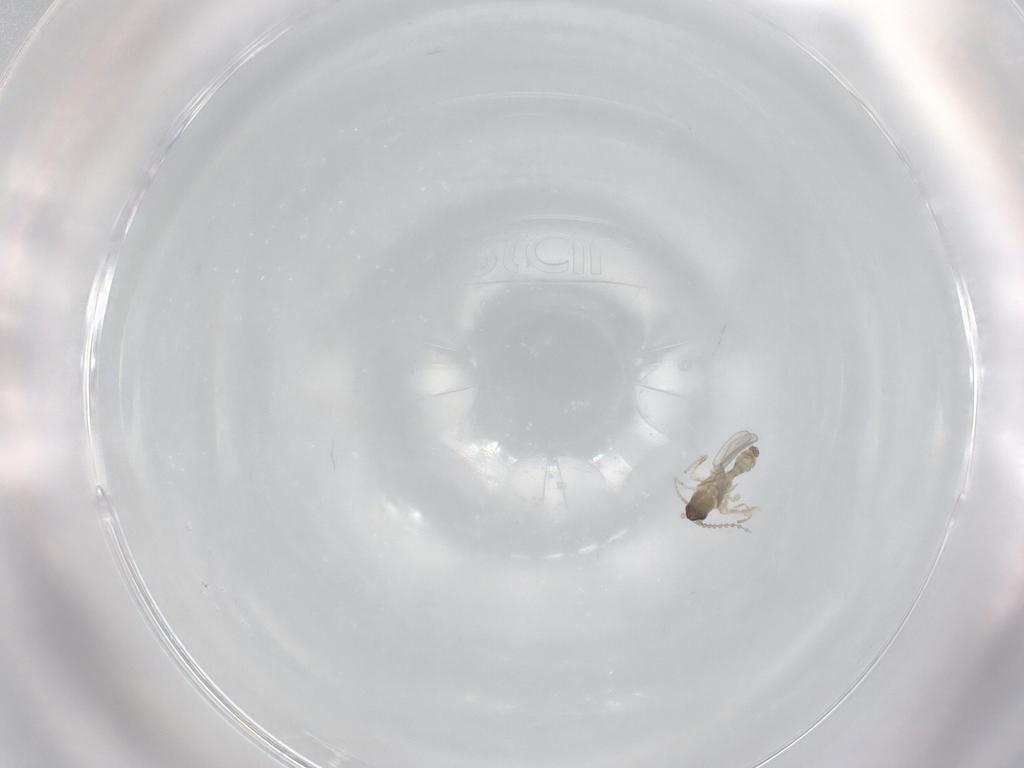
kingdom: Animalia
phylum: Arthropoda
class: Insecta
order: Diptera
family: Cecidomyiidae
